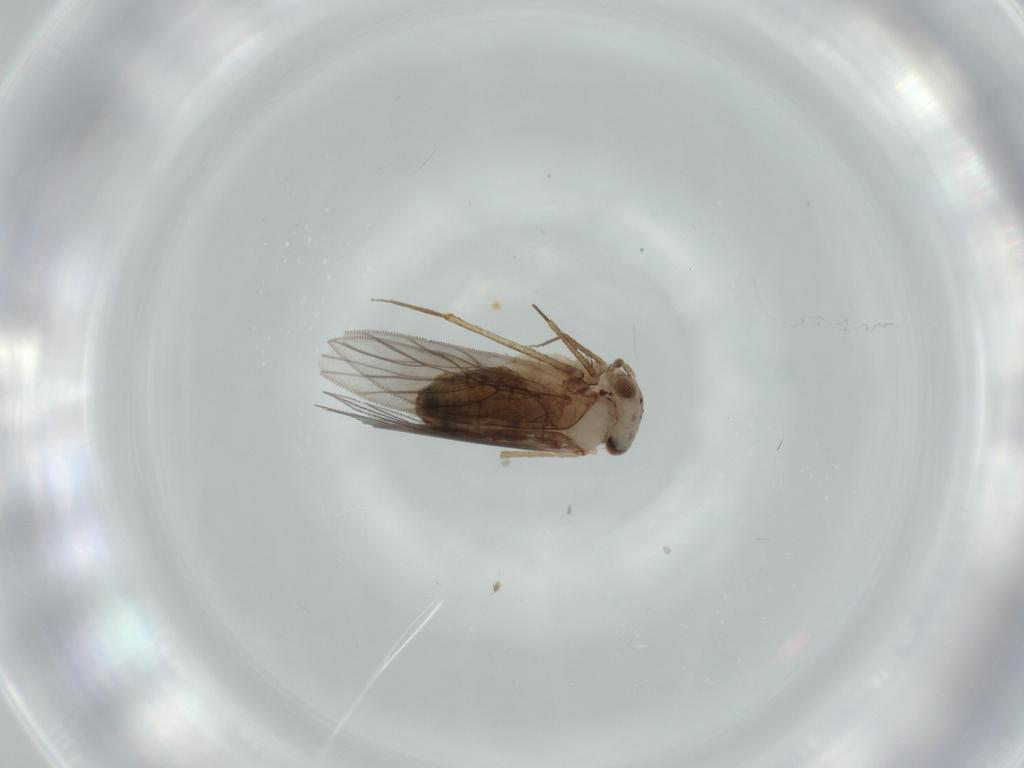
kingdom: Animalia
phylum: Arthropoda
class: Insecta
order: Psocodea
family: Lepidopsocidae
